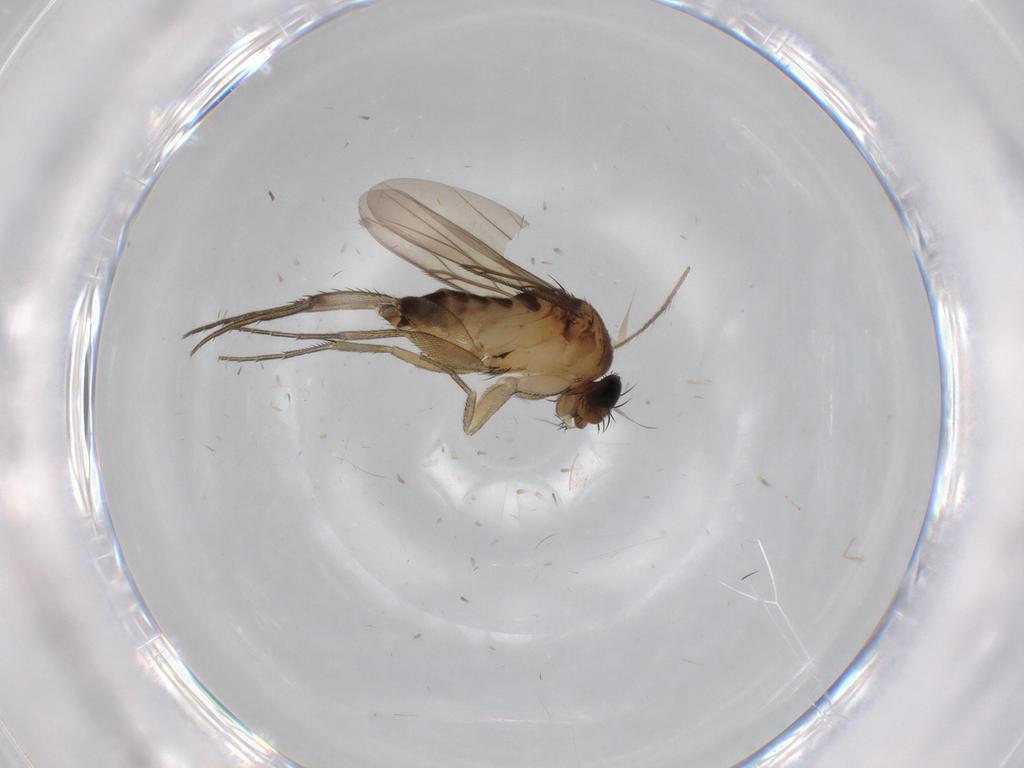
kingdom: Animalia
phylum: Arthropoda
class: Insecta
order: Diptera
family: Cecidomyiidae
